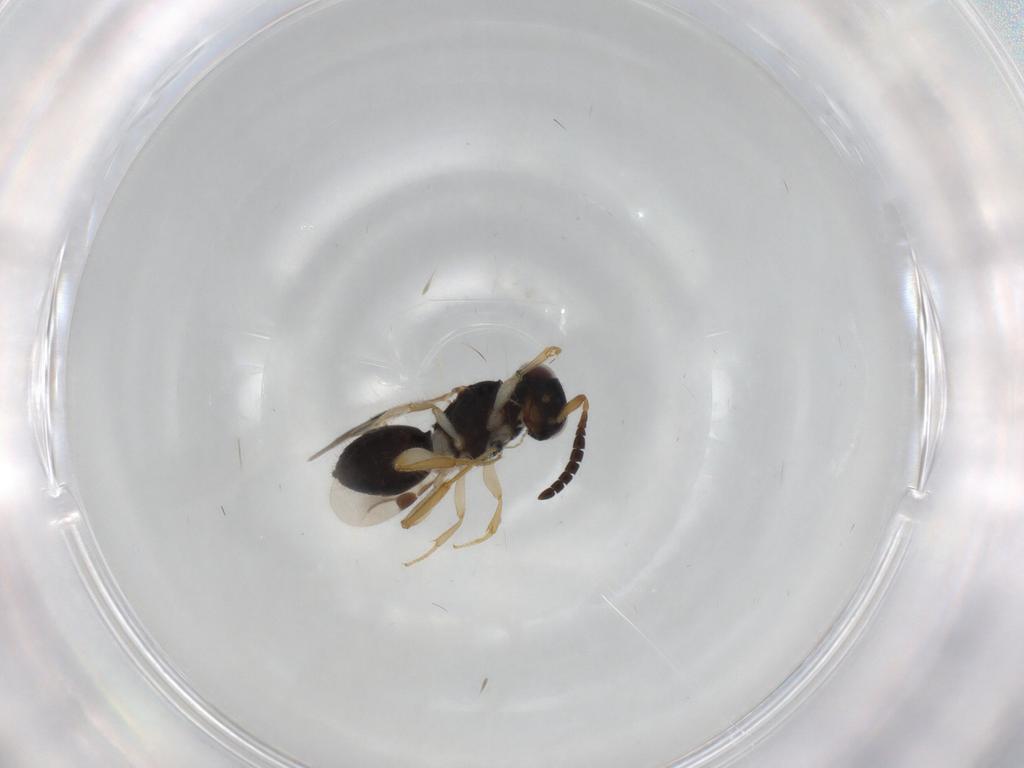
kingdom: Animalia
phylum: Arthropoda
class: Insecta
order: Hymenoptera
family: Megaspilidae
